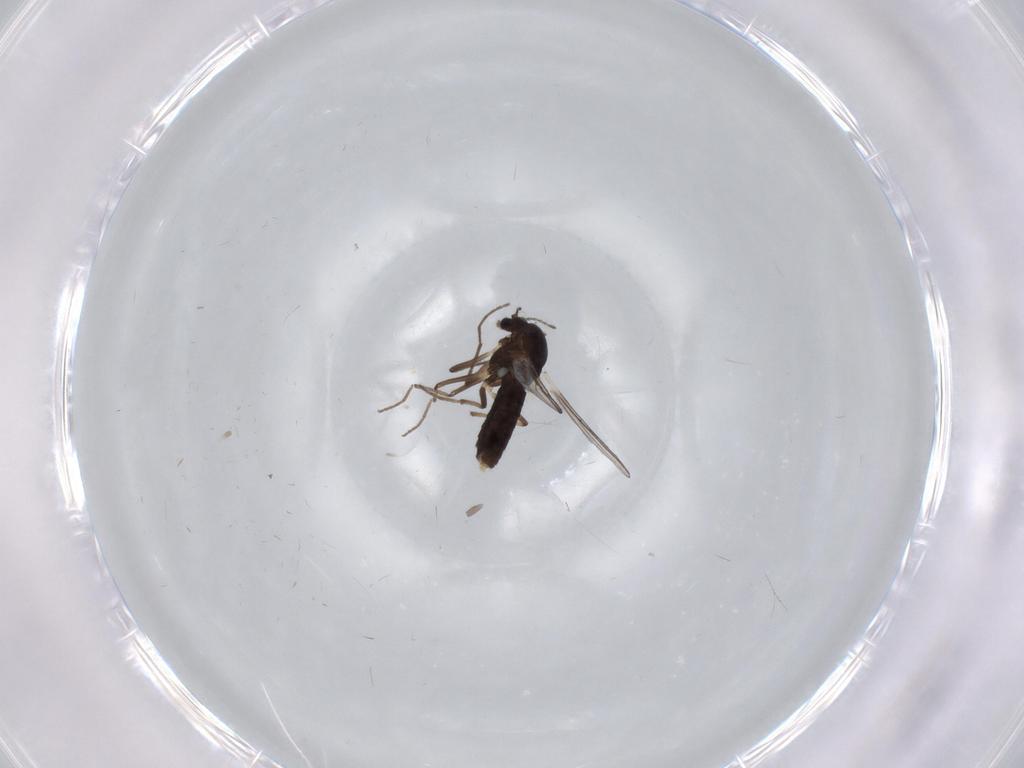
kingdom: Animalia
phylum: Arthropoda
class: Insecta
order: Diptera
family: Chironomidae
